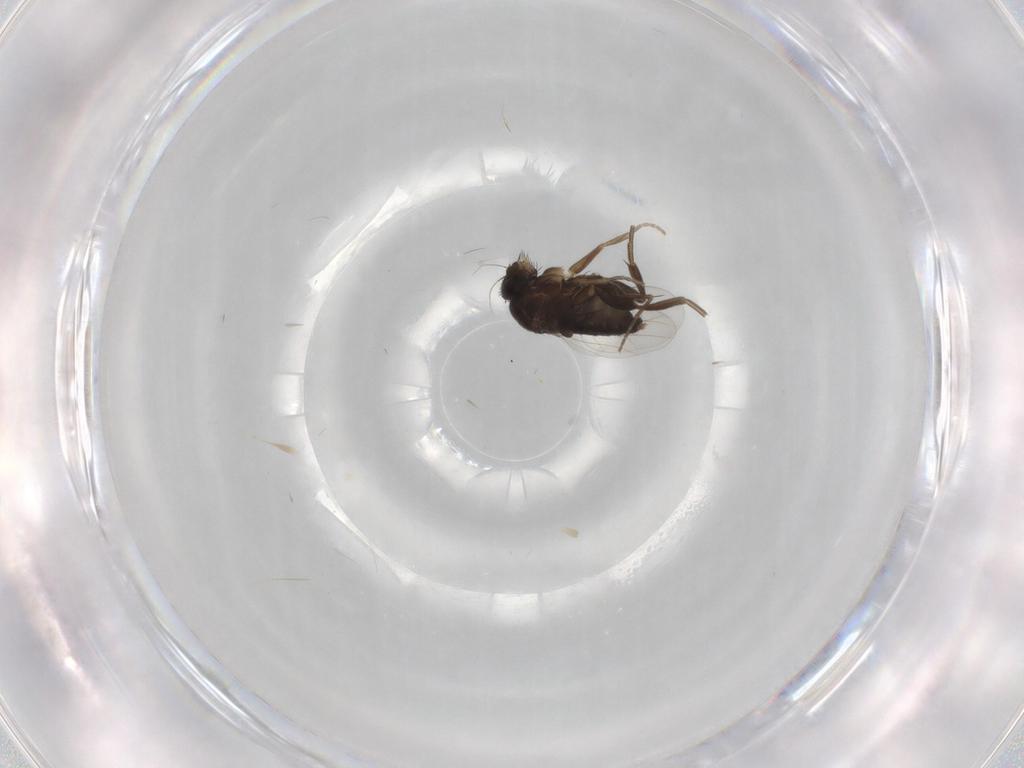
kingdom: Animalia
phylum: Arthropoda
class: Insecta
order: Diptera
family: Phoridae
